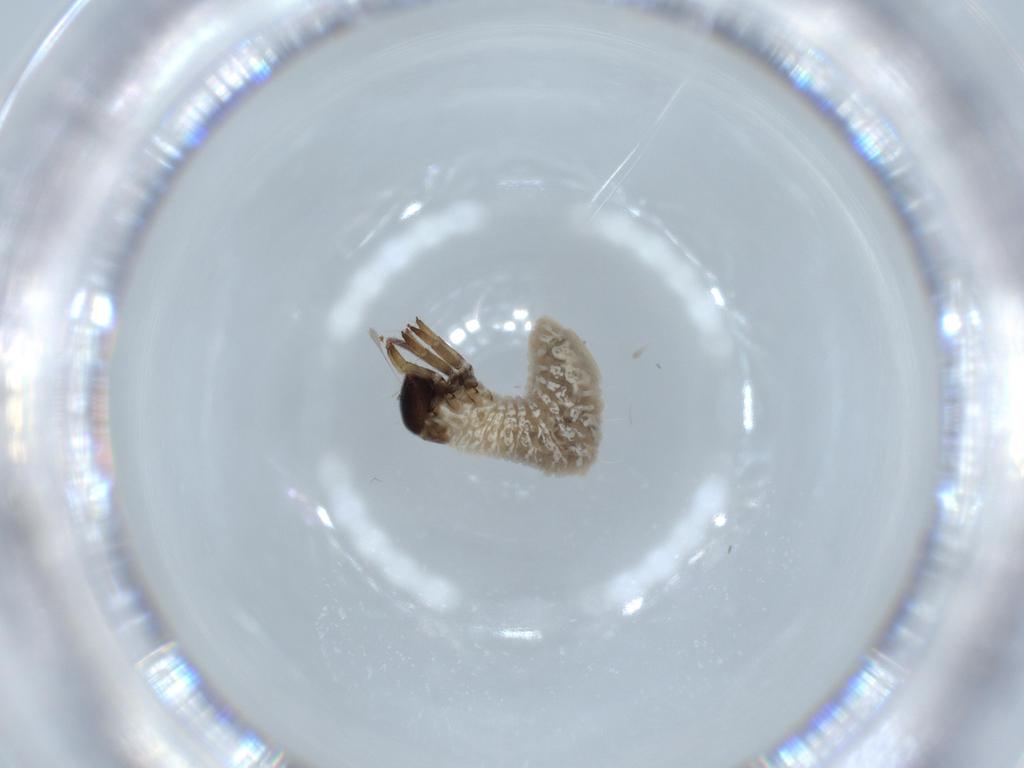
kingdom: Animalia
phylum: Arthropoda
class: Insecta
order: Coleoptera
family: Chrysomelidae
